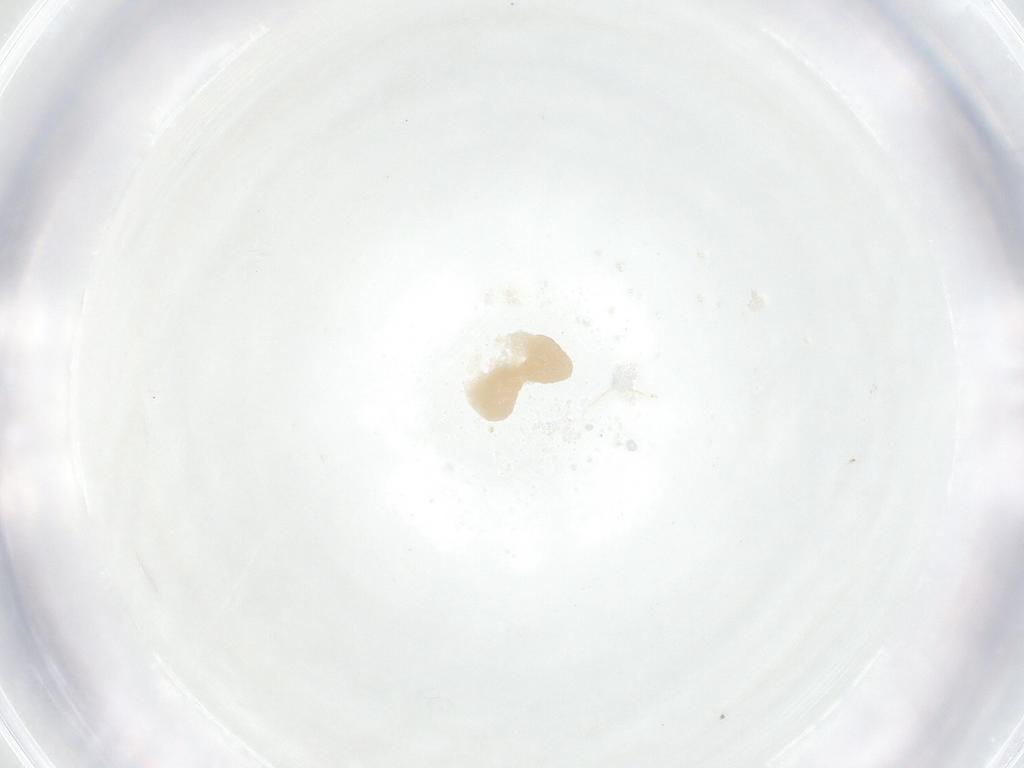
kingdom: Animalia
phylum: Arthropoda
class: Insecta
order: Diptera
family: Fergusoninidae
